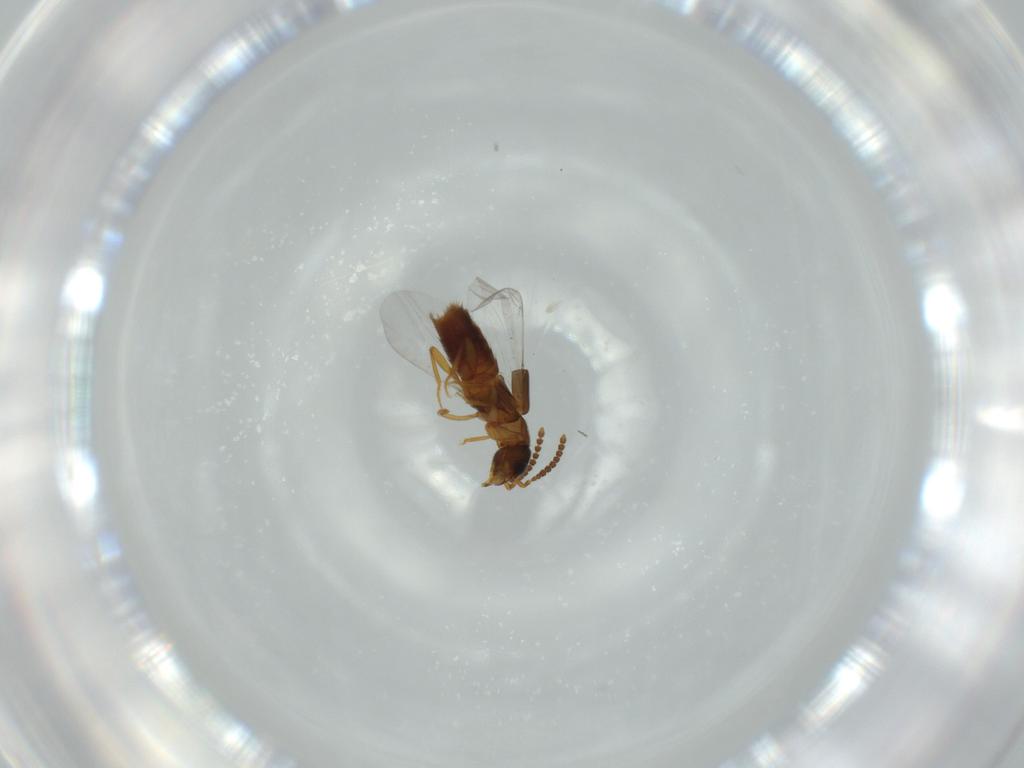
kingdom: Animalia
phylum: Arthropoda
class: Insecta
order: Coleoptera
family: Staphylinidae
